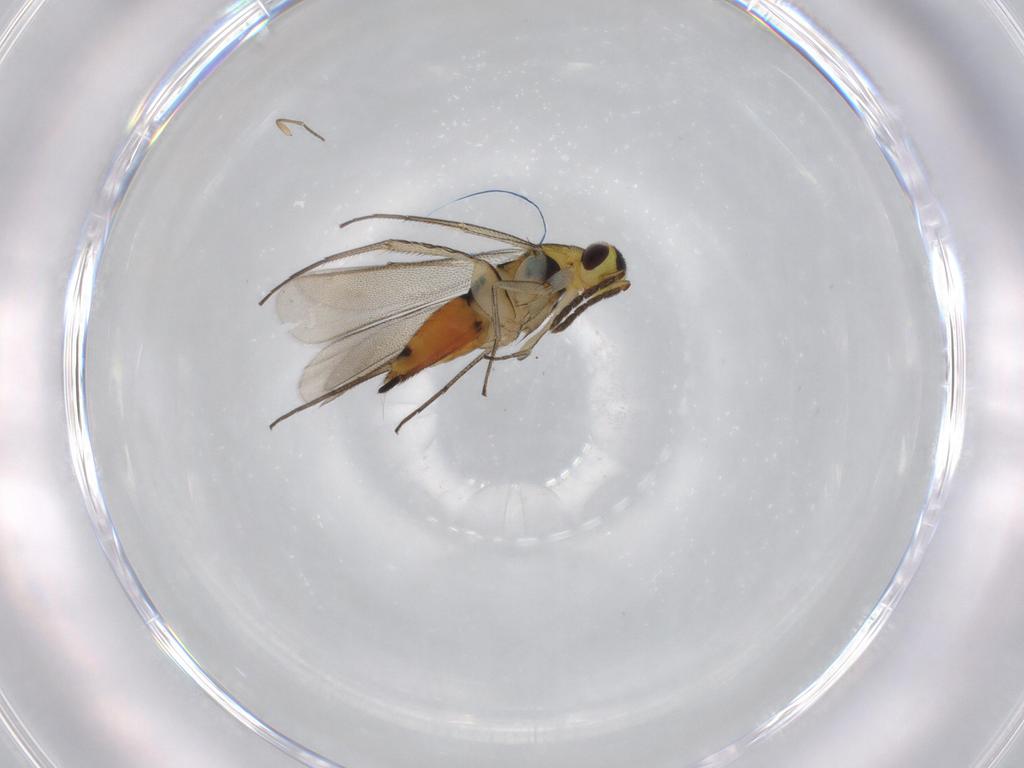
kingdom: Animalia
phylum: Arthropoda
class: Insecta
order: Hymenoptera
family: Eulophidae
